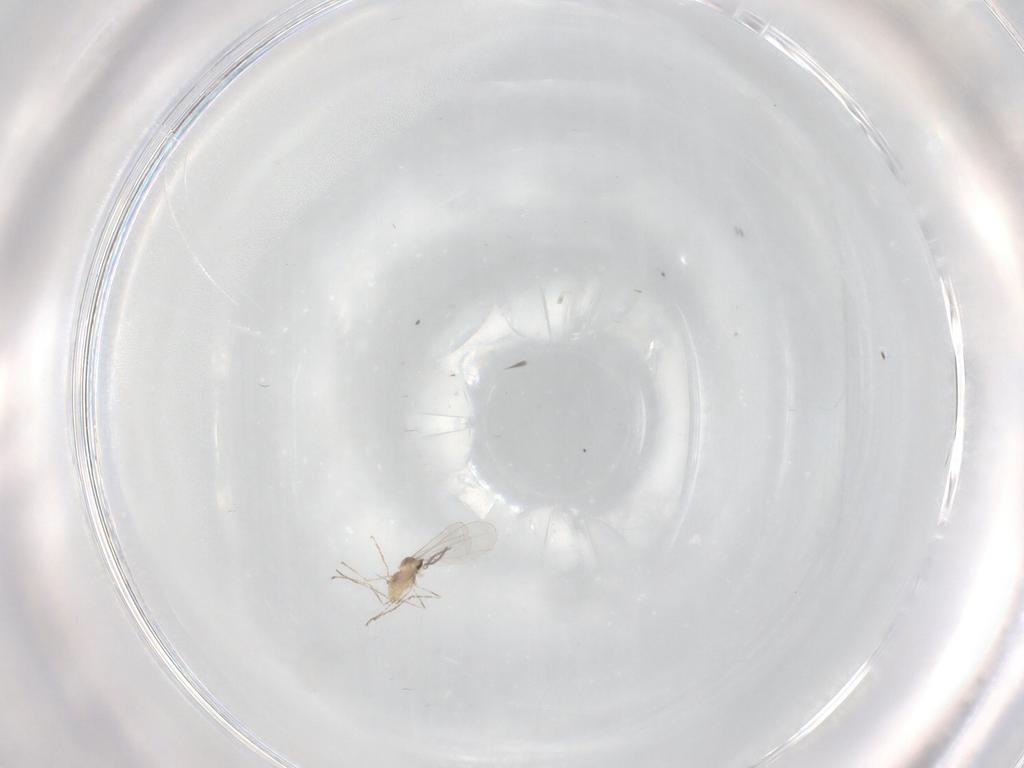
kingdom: Animalia
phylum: Arthropoda
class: Insecta
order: Diptera
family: Cecidomyiidae
